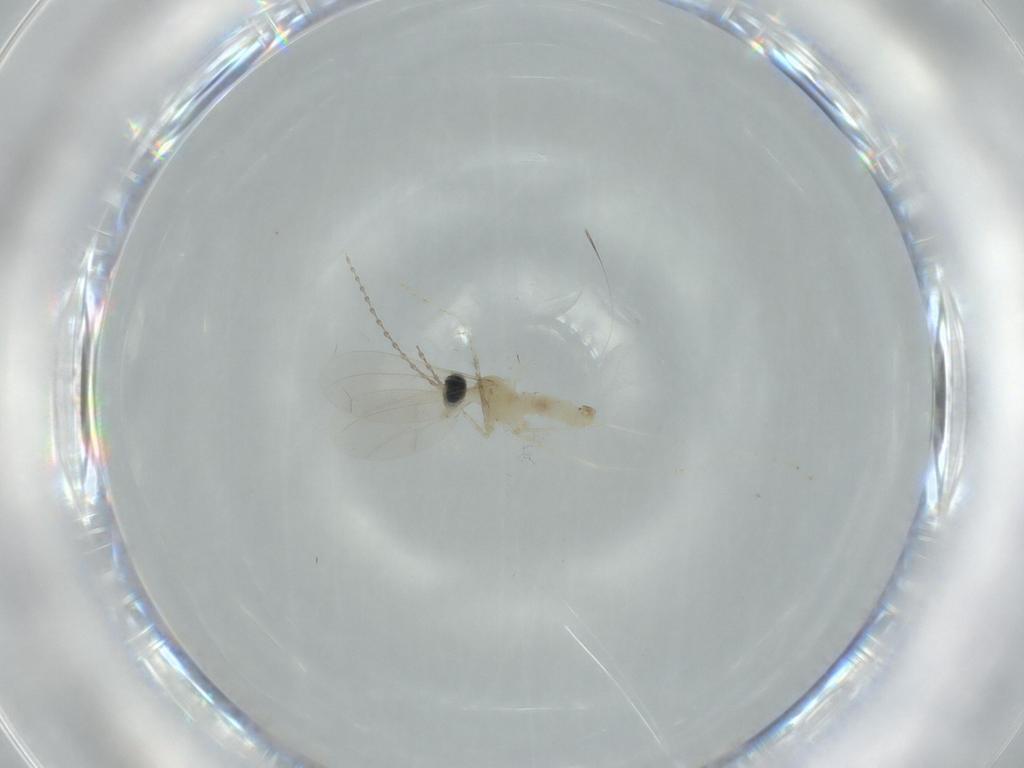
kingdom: Animalia
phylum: Arthropoda
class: Insecta
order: Diptera
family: Cecidomyiidae
